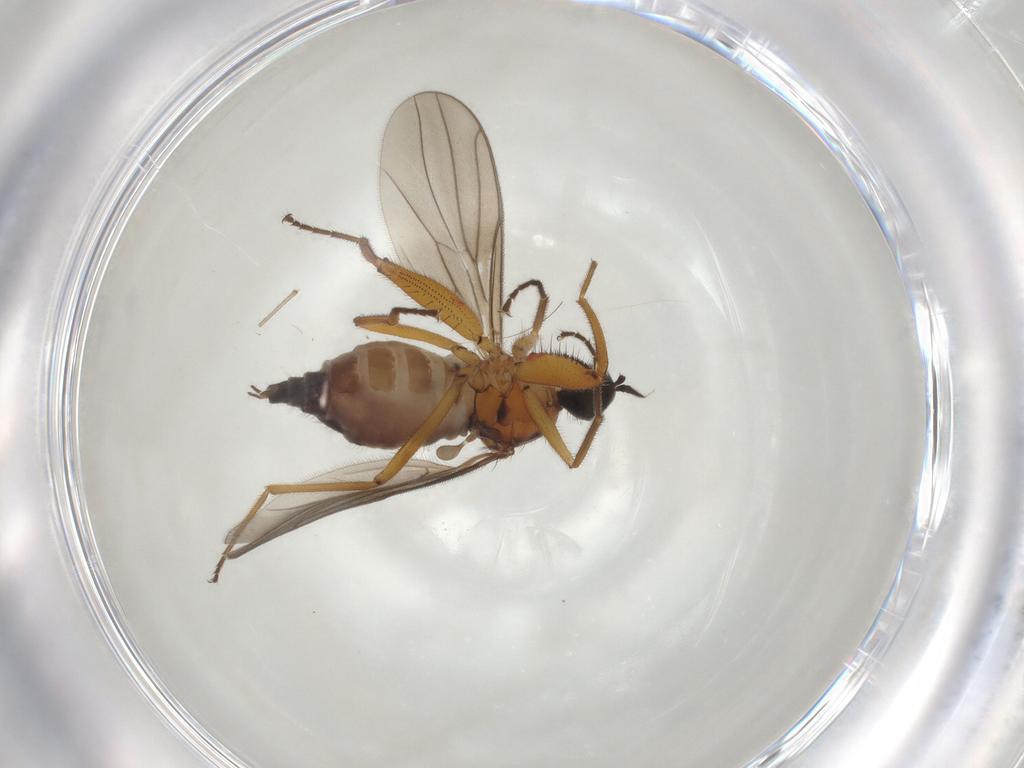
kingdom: Animalia
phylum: Arthropoda
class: Insecta
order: Diptera
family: Hybotidae
